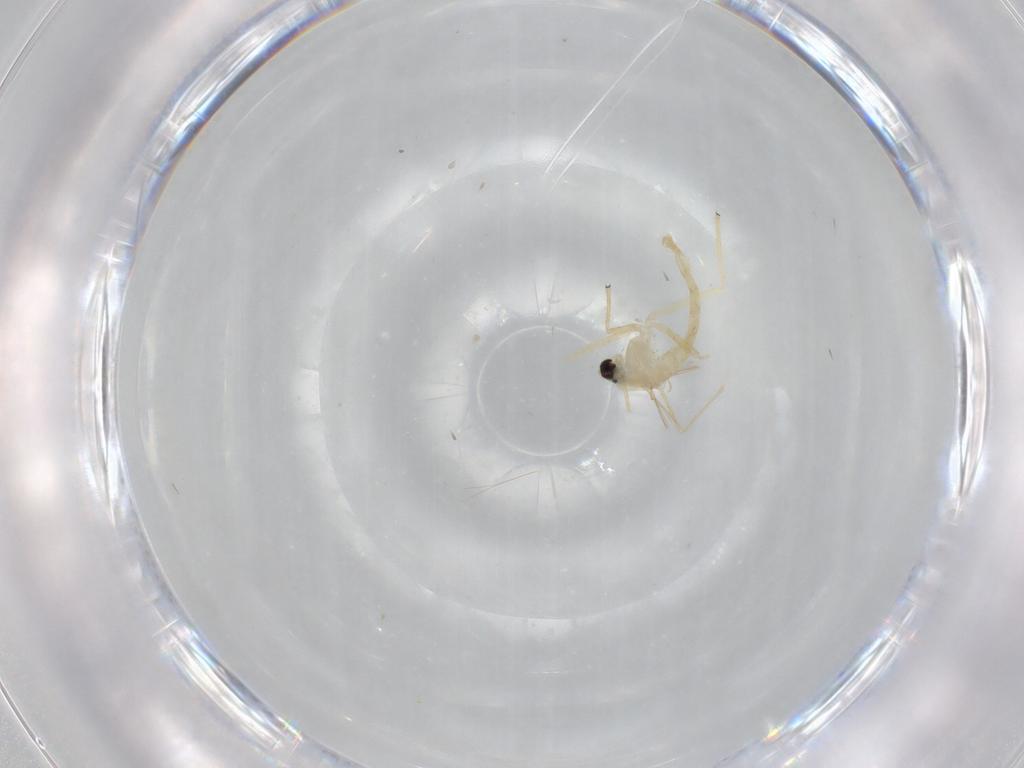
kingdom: Animalia
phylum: Arthropoda
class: Insecta
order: Diptera
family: Chironomidae
